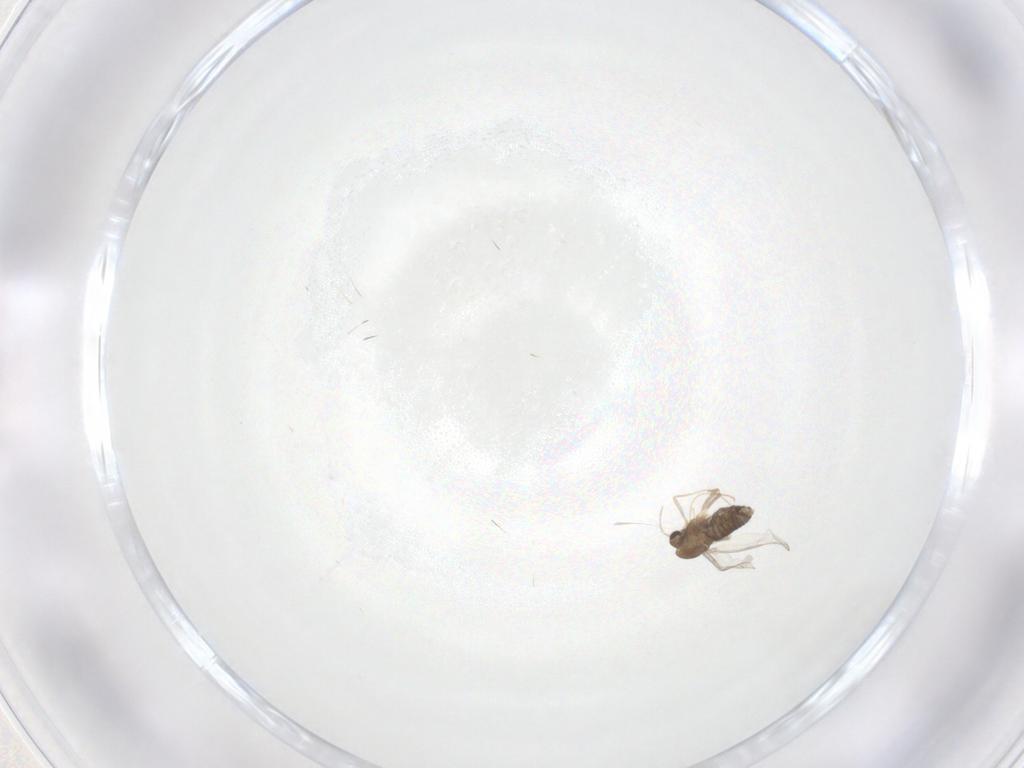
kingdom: Animalia
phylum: Arthropoda
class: Insecta
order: Diptera
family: Chironomidae
